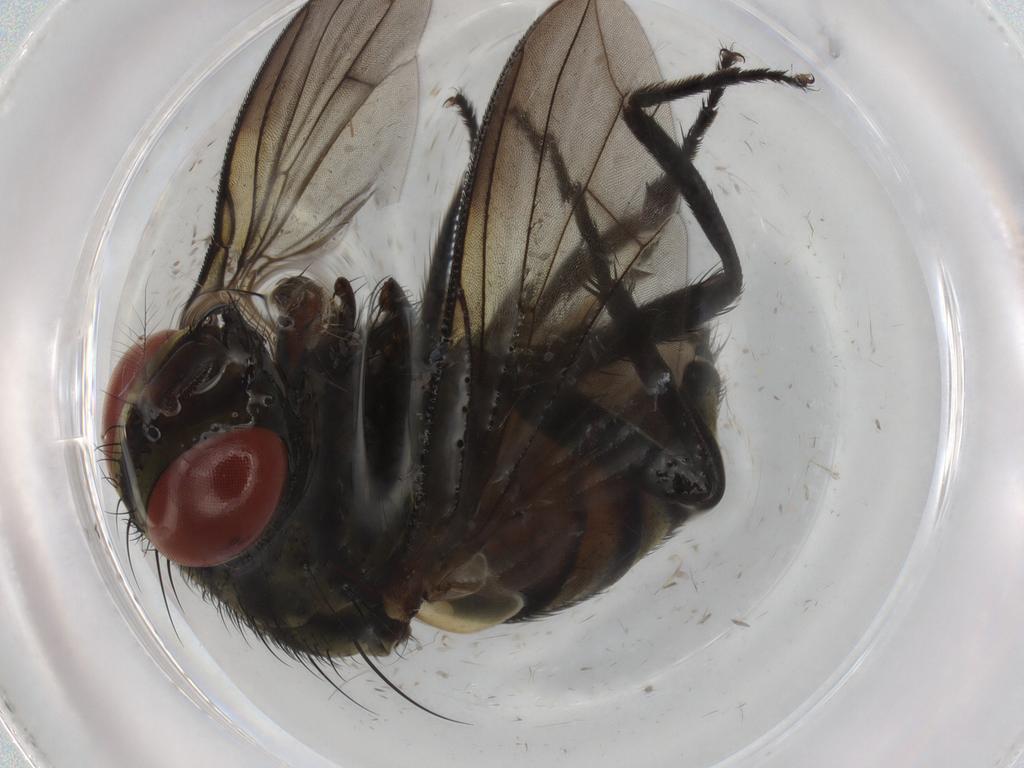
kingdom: Animalia
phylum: Arthropoda
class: Insecta
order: Diptera
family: Sarcophagidae
